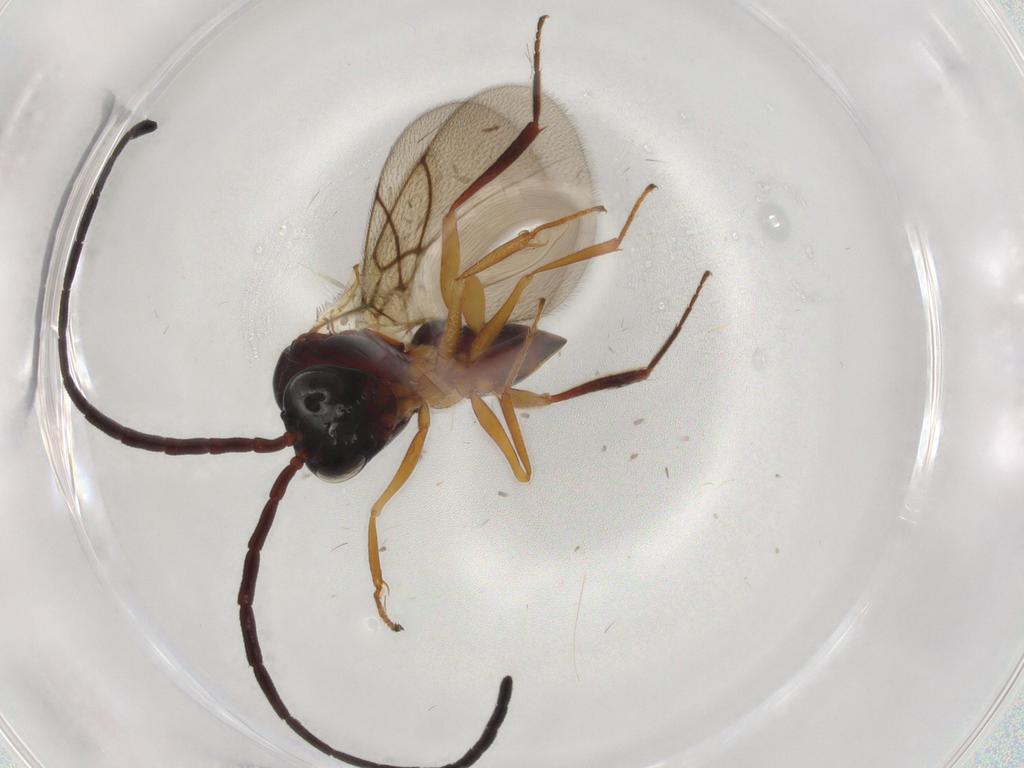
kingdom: Animalia
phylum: Arthropoda
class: Insecta
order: Hymenoptera
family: Figitidae
